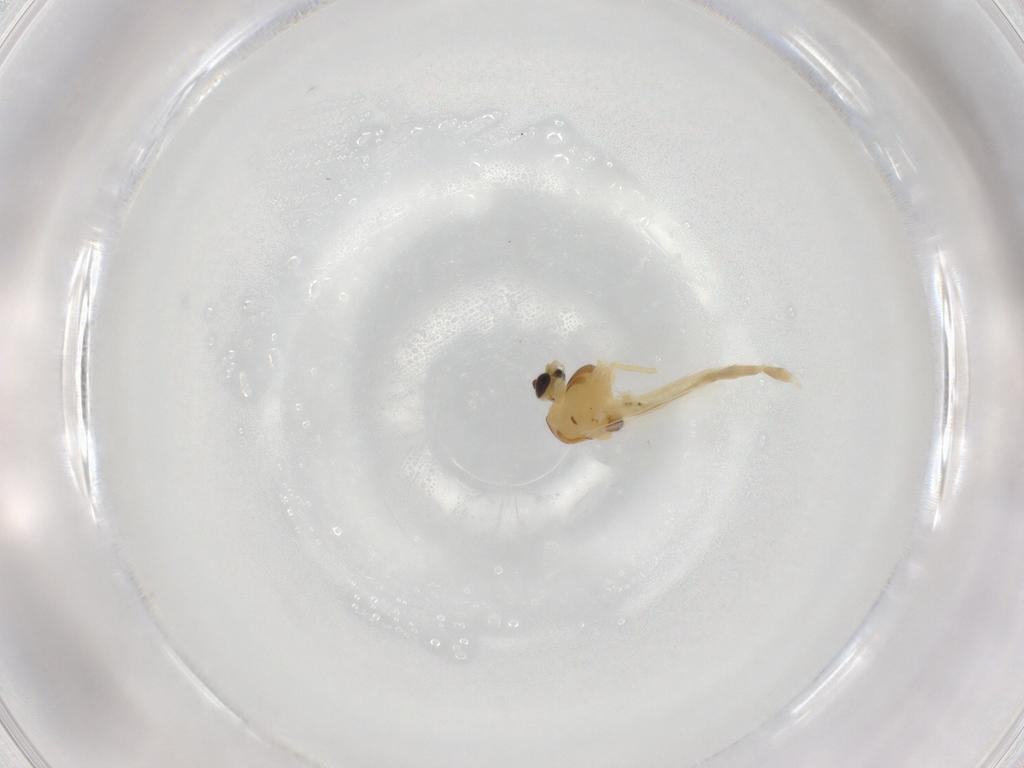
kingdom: Animalia
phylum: Arthropoda
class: Insecta
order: Diptera
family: Chironomidae
